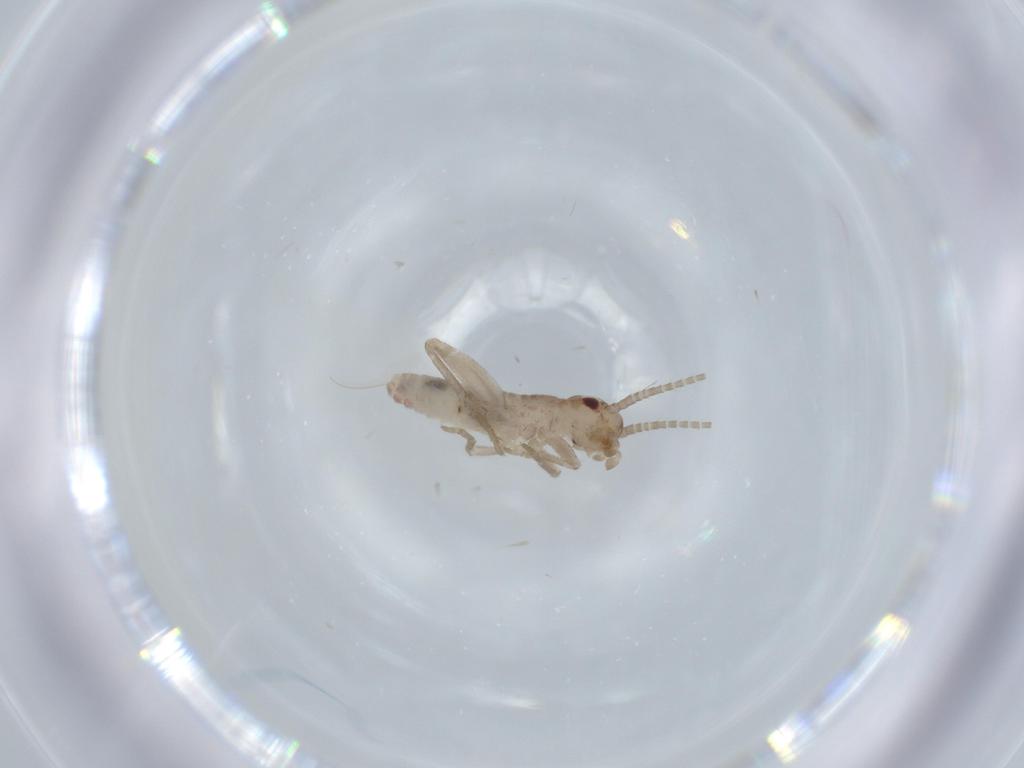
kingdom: Animalia
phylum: Arthropoda
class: Insecta
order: Orthoptera
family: Mogoplistidae
